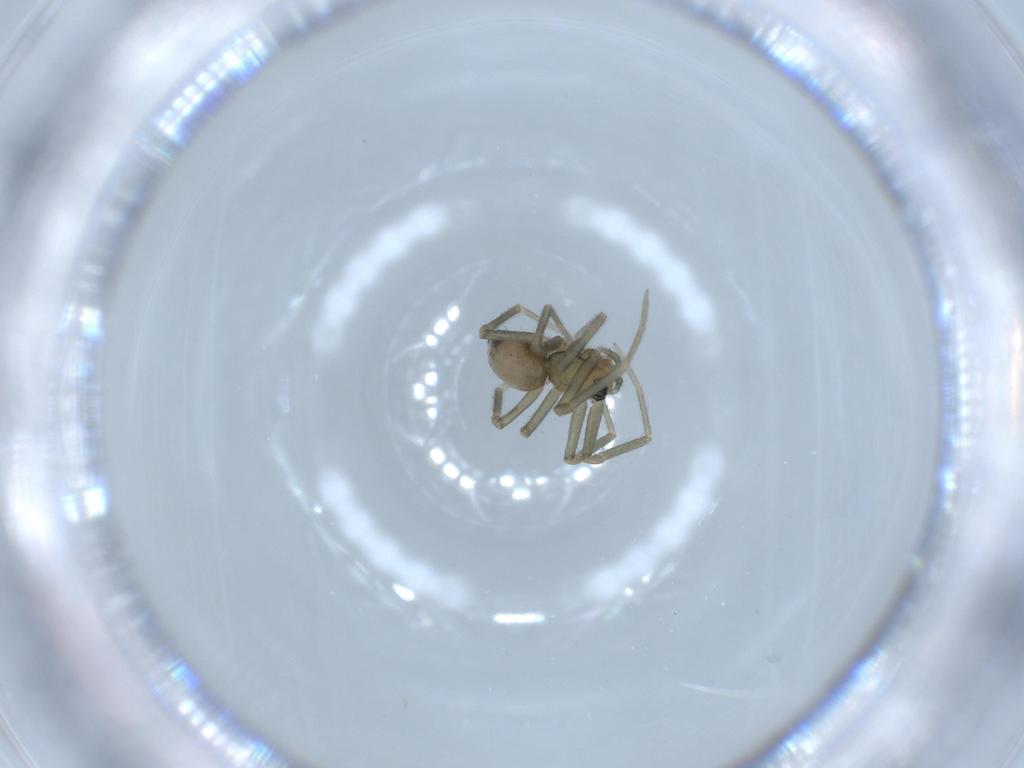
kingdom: Animalia
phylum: Arthropoda
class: Arachnida
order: Araneae
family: Linyphiidae
